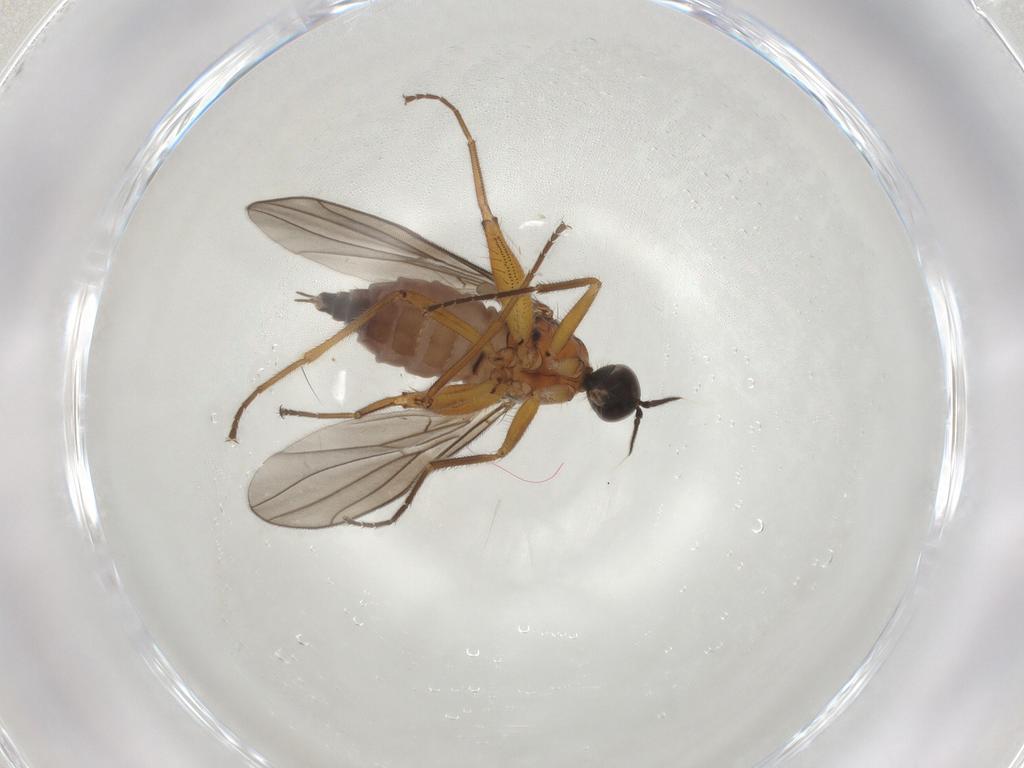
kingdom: Animalia
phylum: Arthropoda
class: Insecta
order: Diptera
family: Hybotidae
